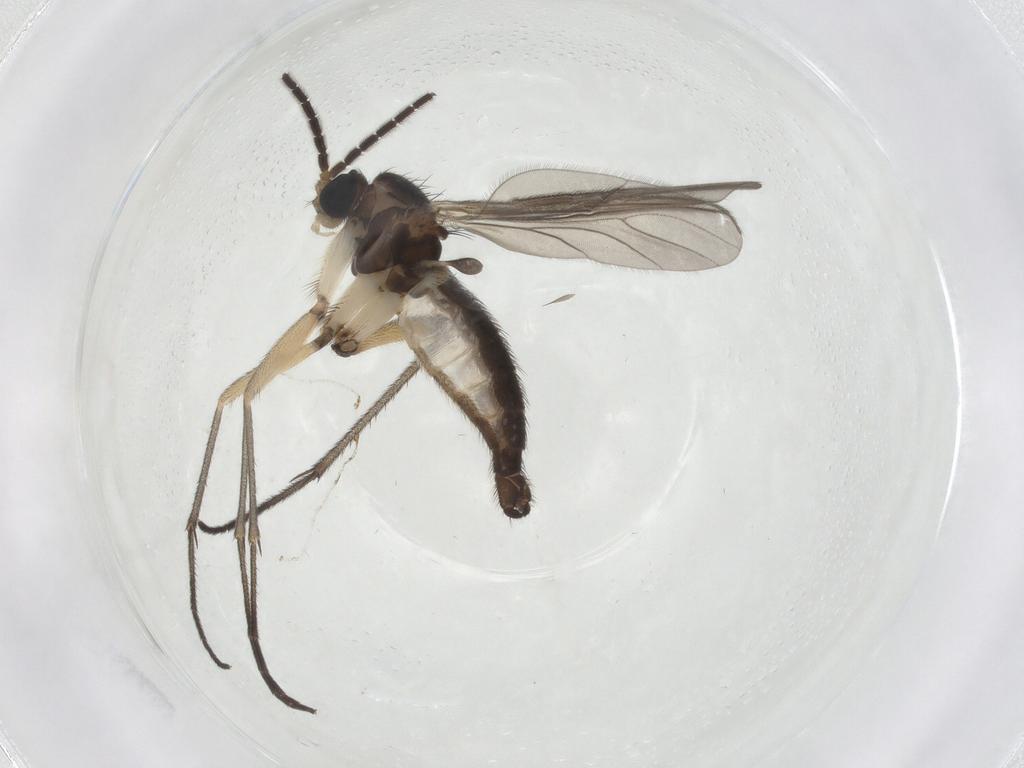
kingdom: Animalia
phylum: Arthropoda
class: Insecta
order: Diptera
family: Sciaridae
